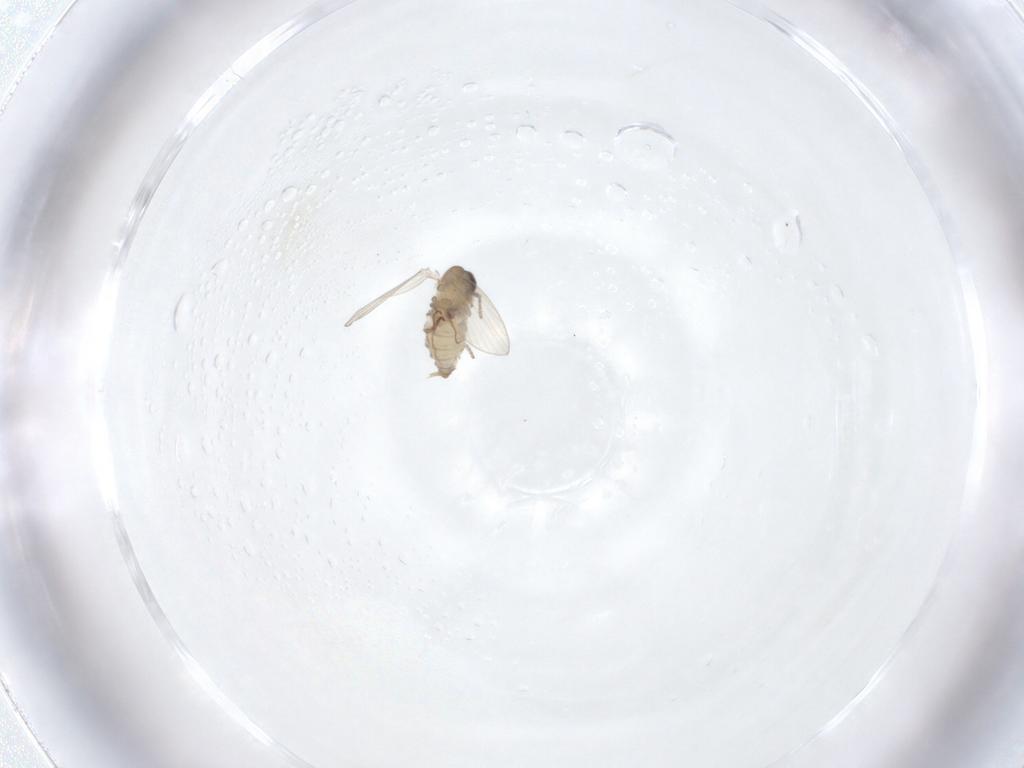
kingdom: Animalia
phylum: Arthropoda
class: Insecta
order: Diptera
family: Psychodidae
